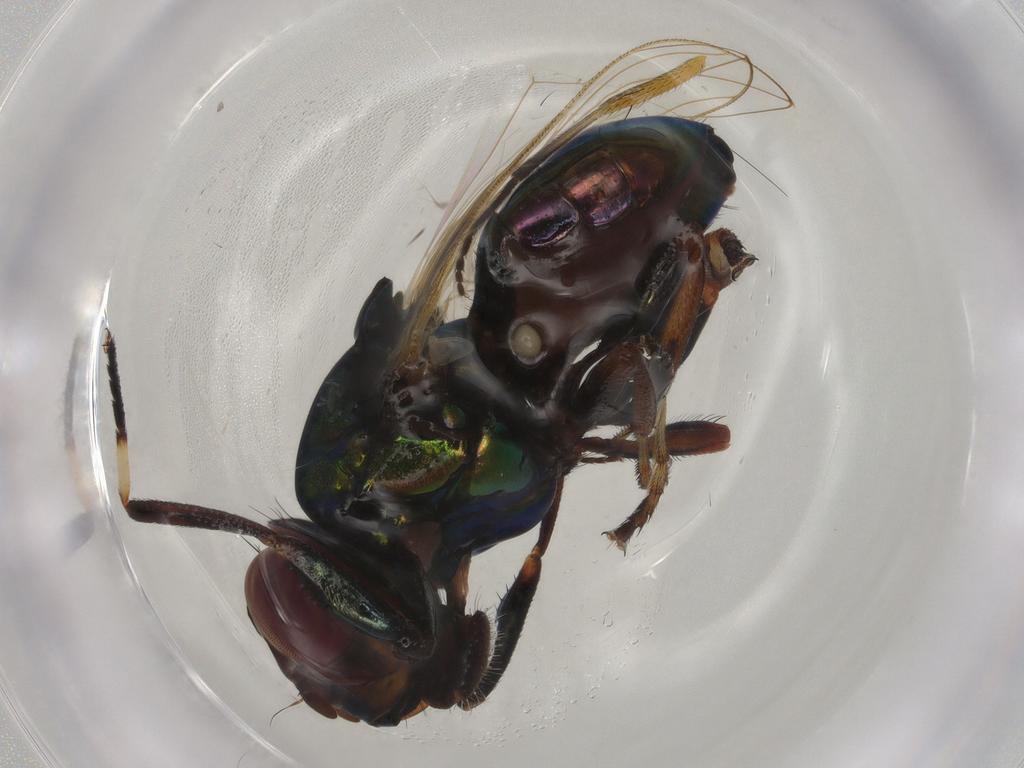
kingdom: Animalia
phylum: Arthropoda
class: Insecta
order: Diptera
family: Ulidiidae
